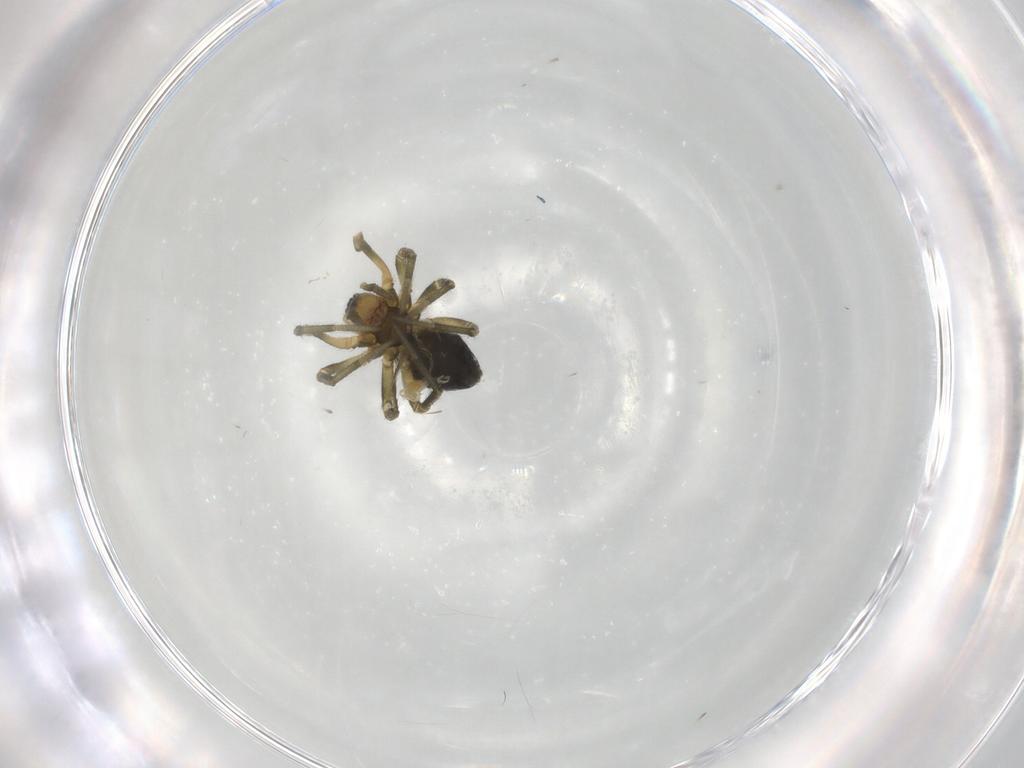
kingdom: Animalia
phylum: Arthropoda
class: Arachnida
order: Araneae
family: Linyphiidae
